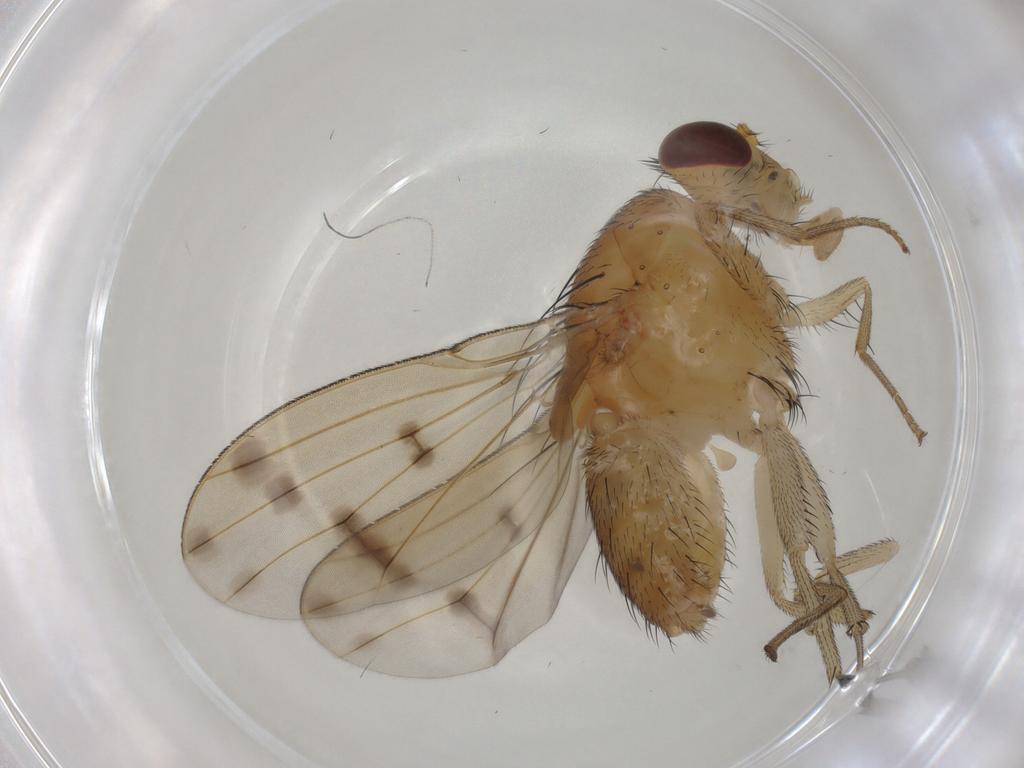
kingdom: Animalia
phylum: Arthropoda
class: Insecta
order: Diptera
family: Lauxaniidae
